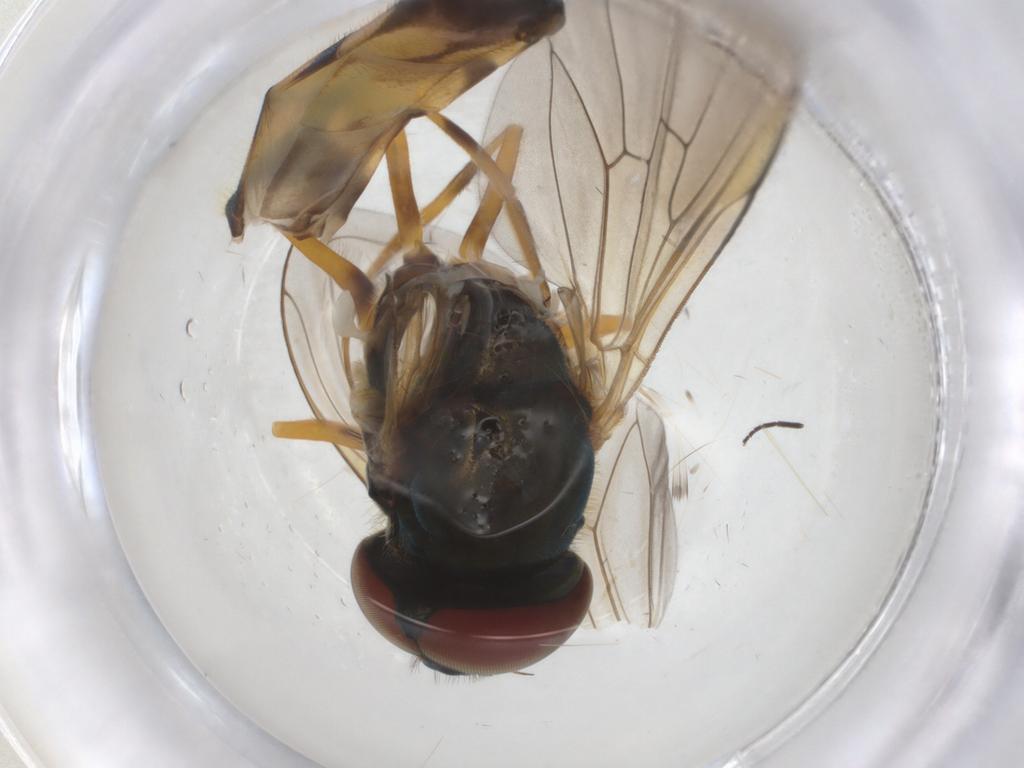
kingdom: Animalia
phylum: Arthropoda
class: Insecta
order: Diptera
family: Syrphidae
